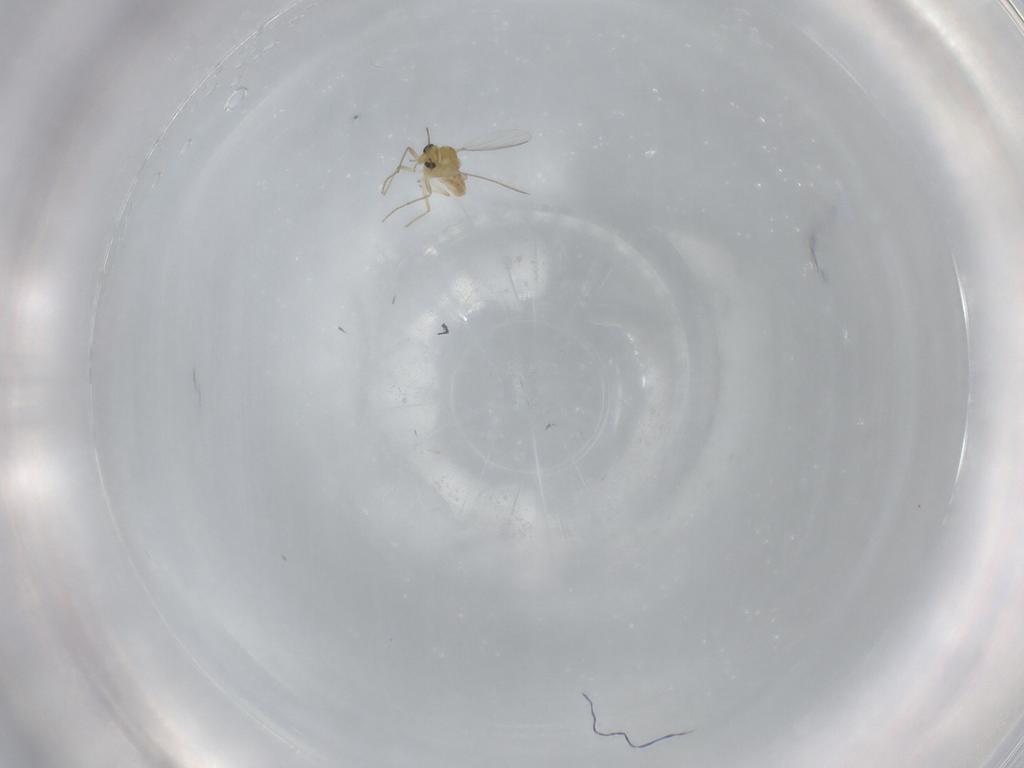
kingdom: Animalia
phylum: Arthropoda
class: Insecta
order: Diptera
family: Chironomidae
